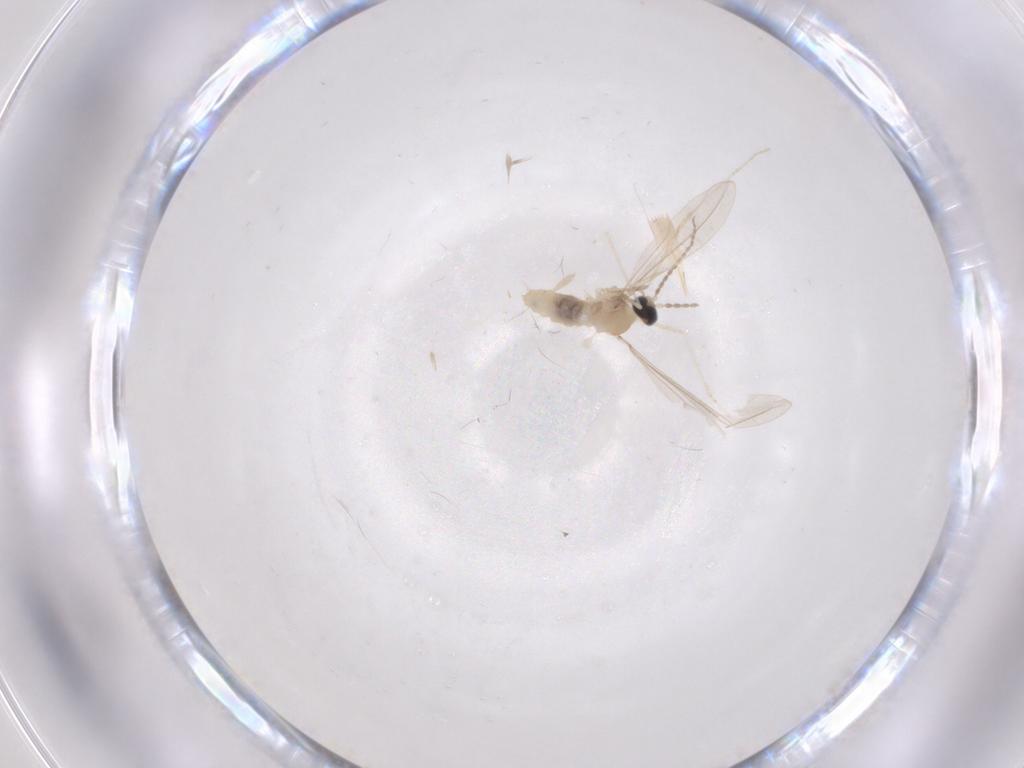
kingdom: Animalia
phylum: Arthropoda
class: Insecta
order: Diptera
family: Cecidomyiidae
